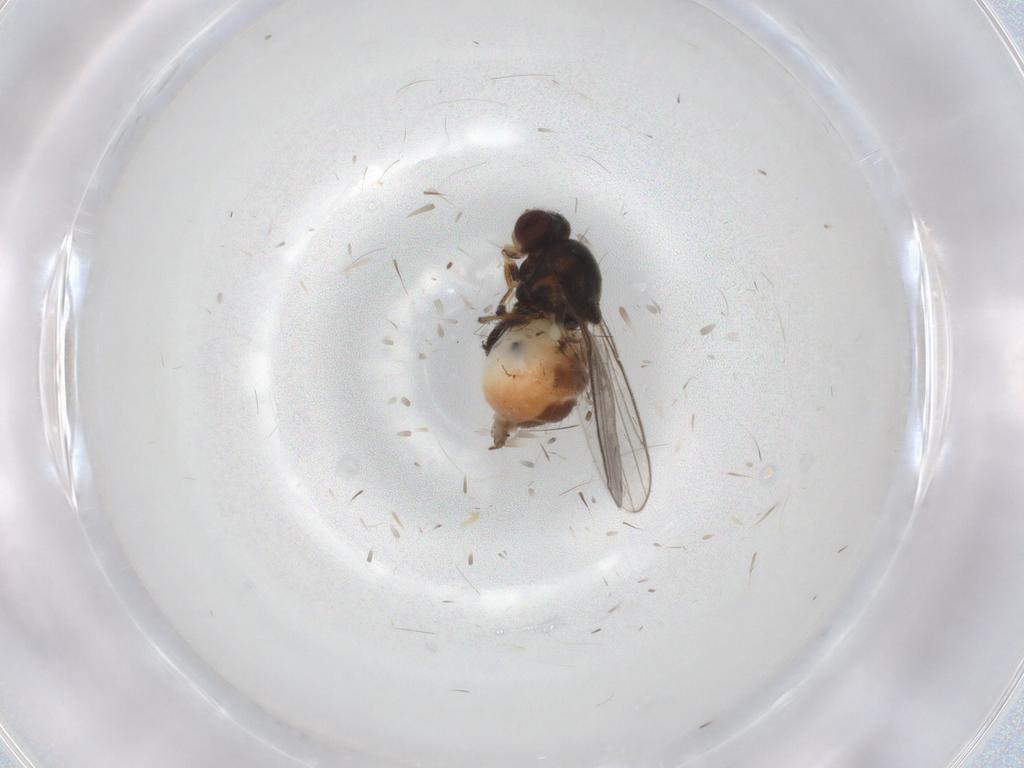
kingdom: Animalia
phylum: Arthropoda
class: Insecta
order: Diptera
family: Chloropidae
